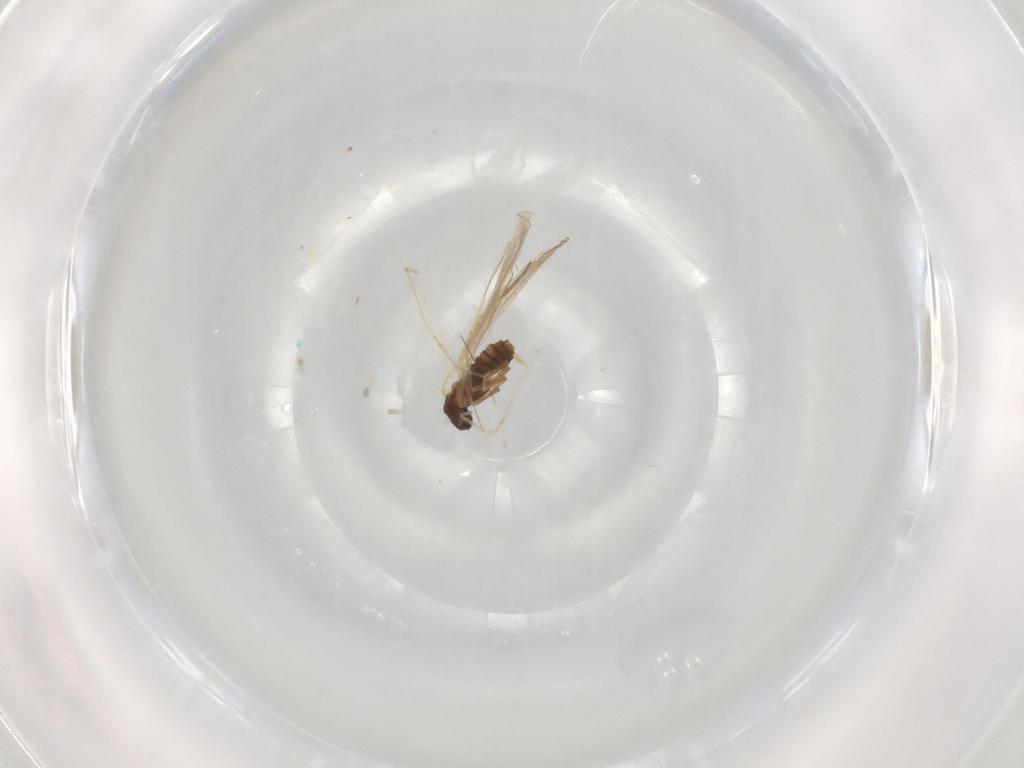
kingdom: Animalia
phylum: Arthropoda
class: Insecta
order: Diptera
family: Cecidomyiidae
